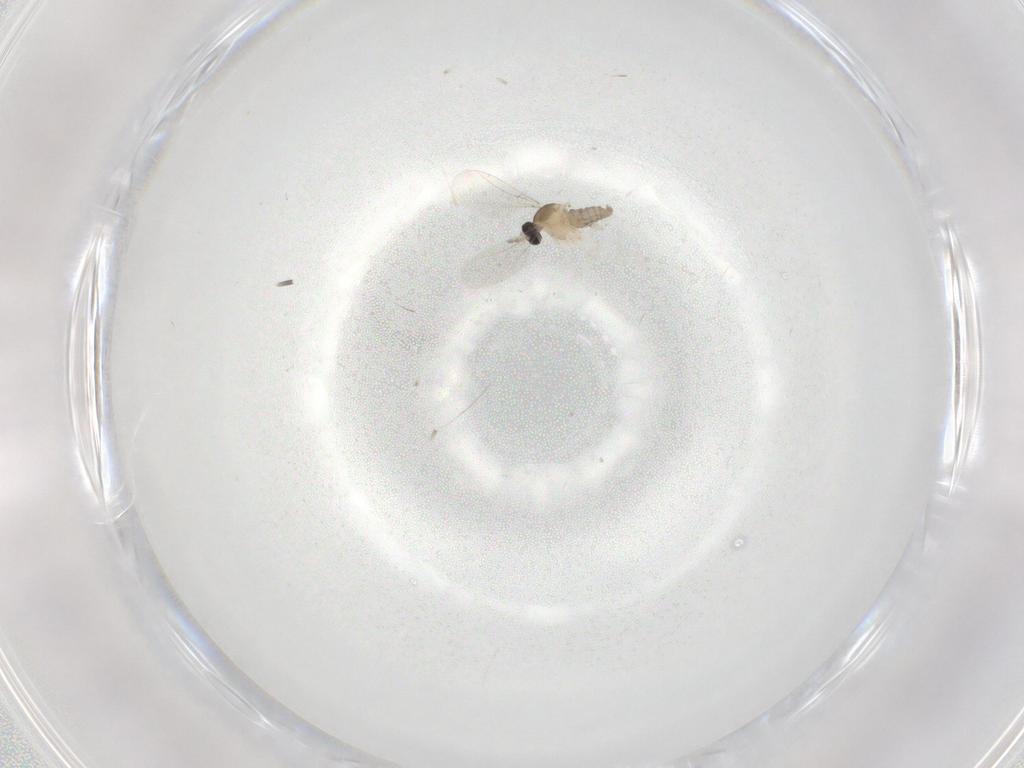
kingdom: Animalia
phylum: Arthropoda
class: Insecta
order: Diptera
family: Cecidomyiidae
